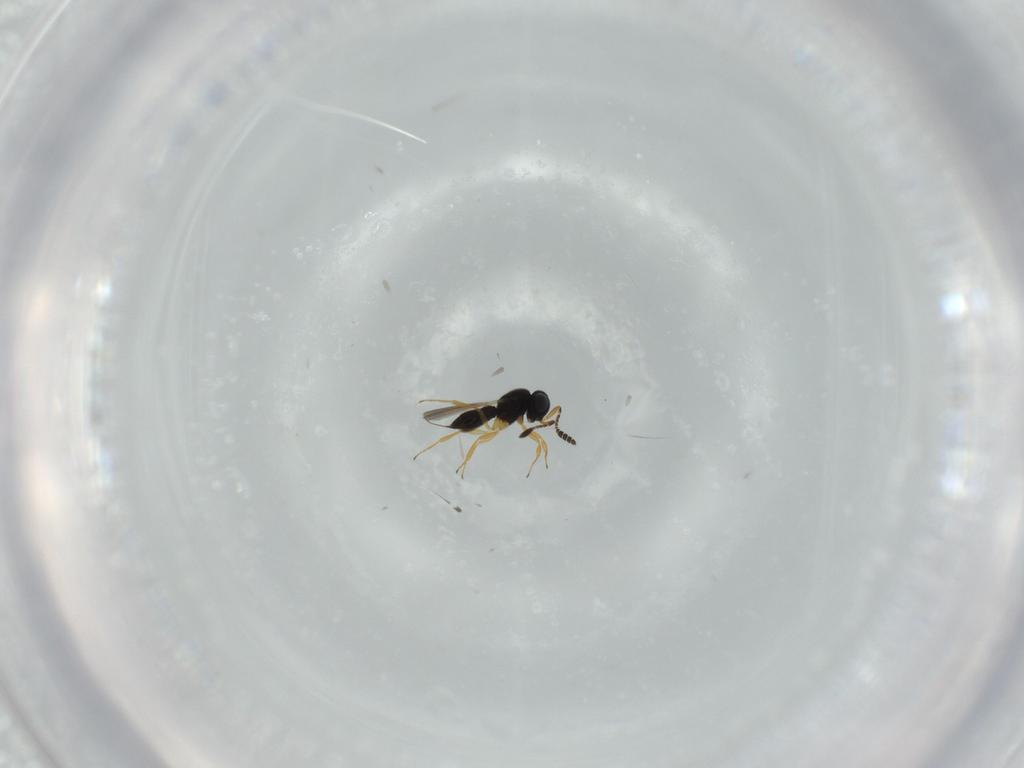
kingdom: Animalia
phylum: Arthropoda
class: Insecta
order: Hymenoptera
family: Scelionidae
